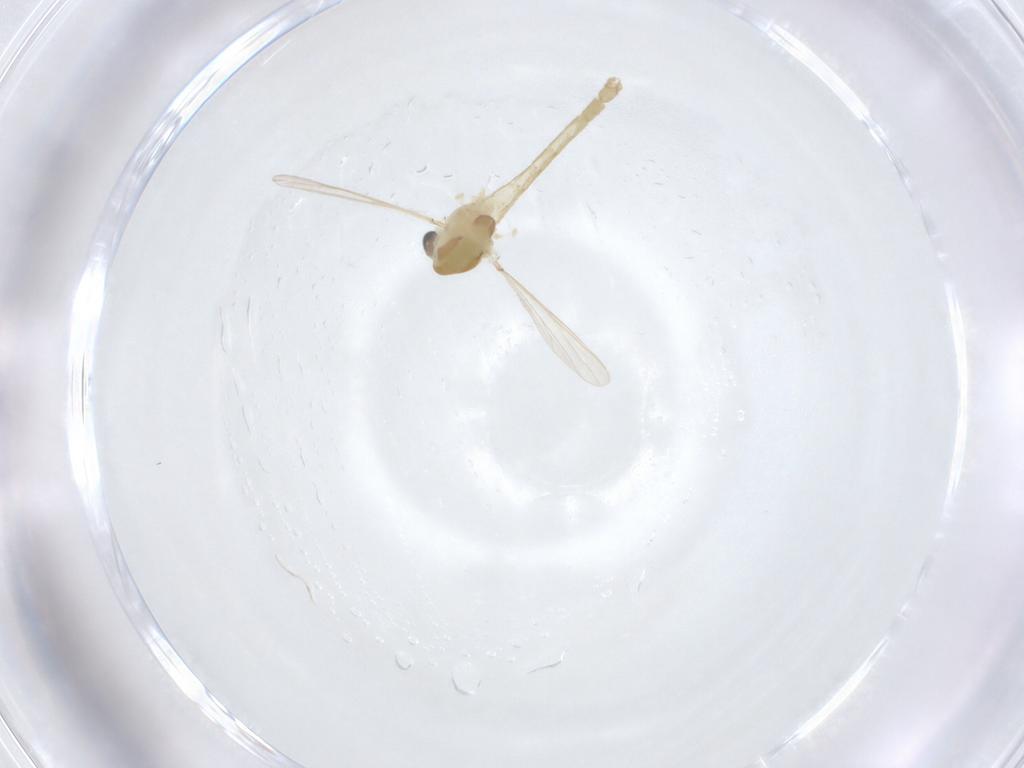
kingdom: Animalia
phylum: Arthropoda
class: Insecta
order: Diptera
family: Chironomidae
